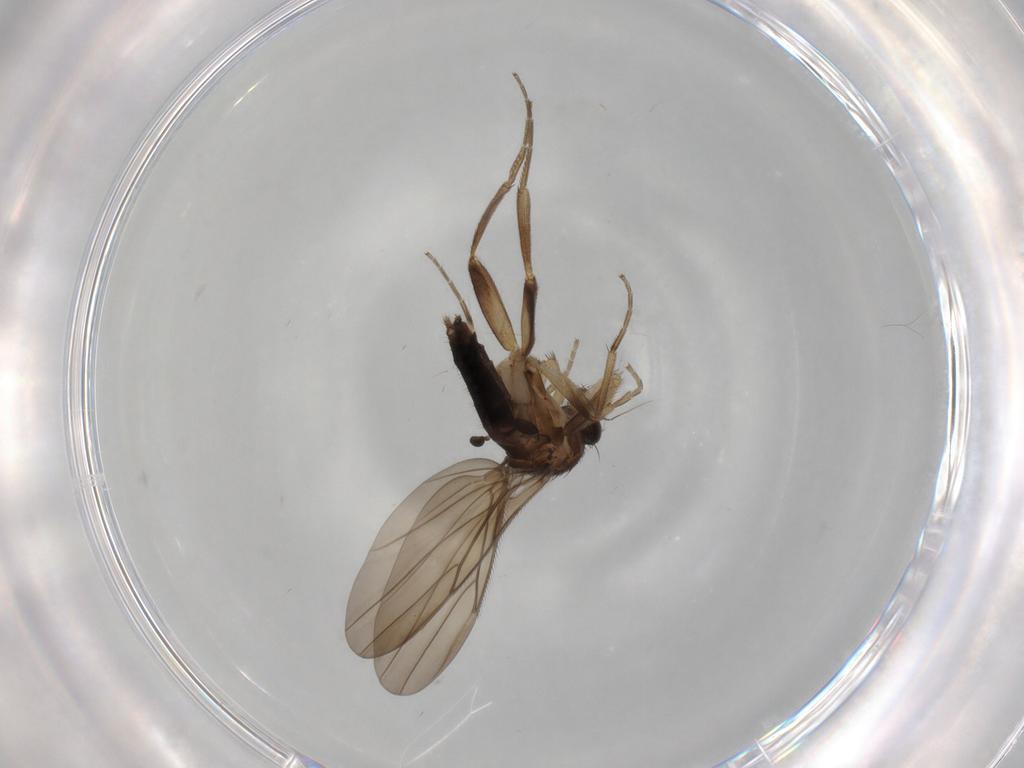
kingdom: Animalia
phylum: Arthropoda
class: Insecta
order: Diptera
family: Phoridae
